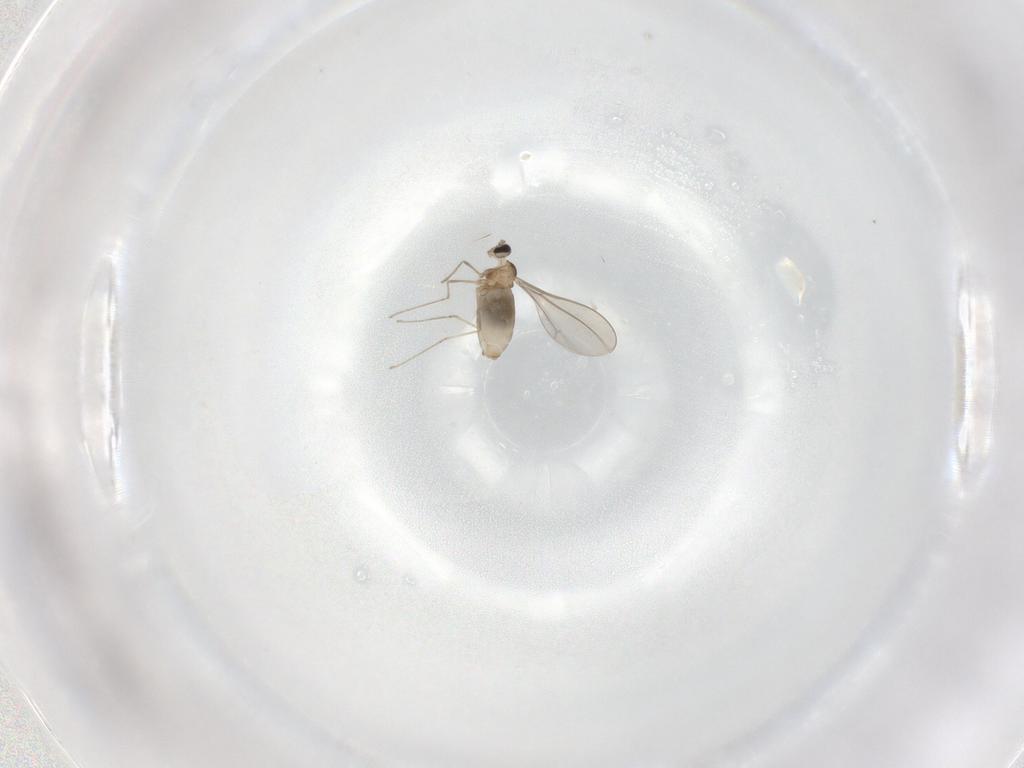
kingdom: Animalia
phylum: Arthropoda
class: Insecta
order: Diptera
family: Cecidomyiidae
